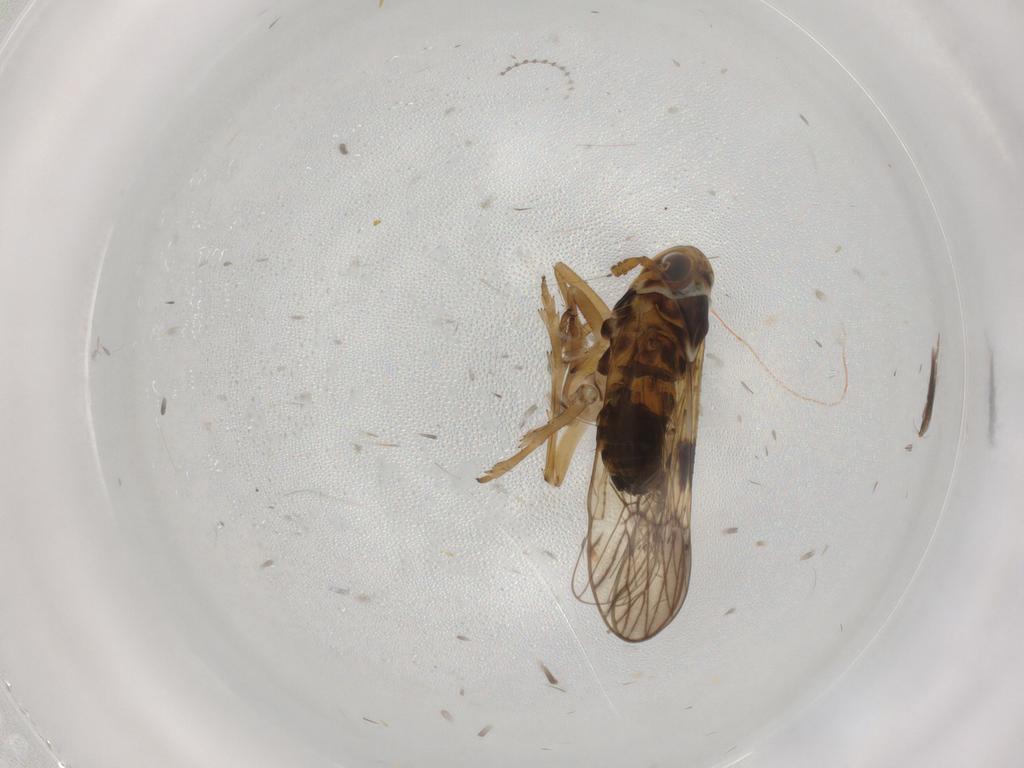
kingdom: Animalia
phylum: Arthropoda
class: Insecta
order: Hemiptera
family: Delphacidae
